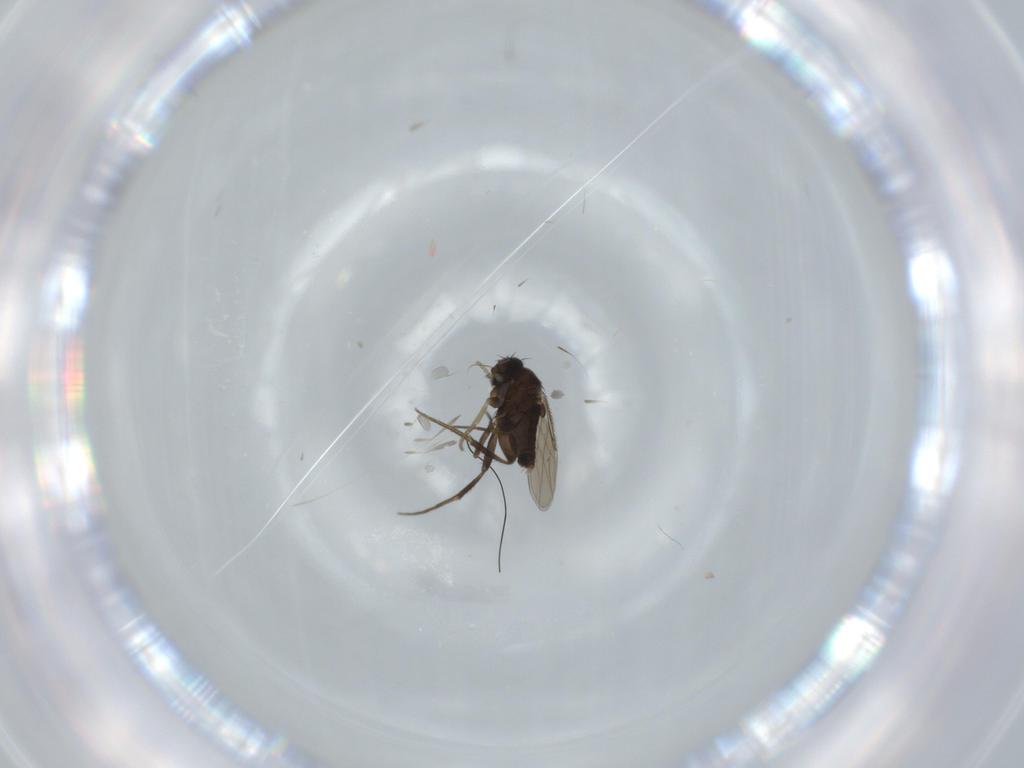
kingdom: Animalia
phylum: Arthropoda
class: Insecta
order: Diptera
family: Phoridae
